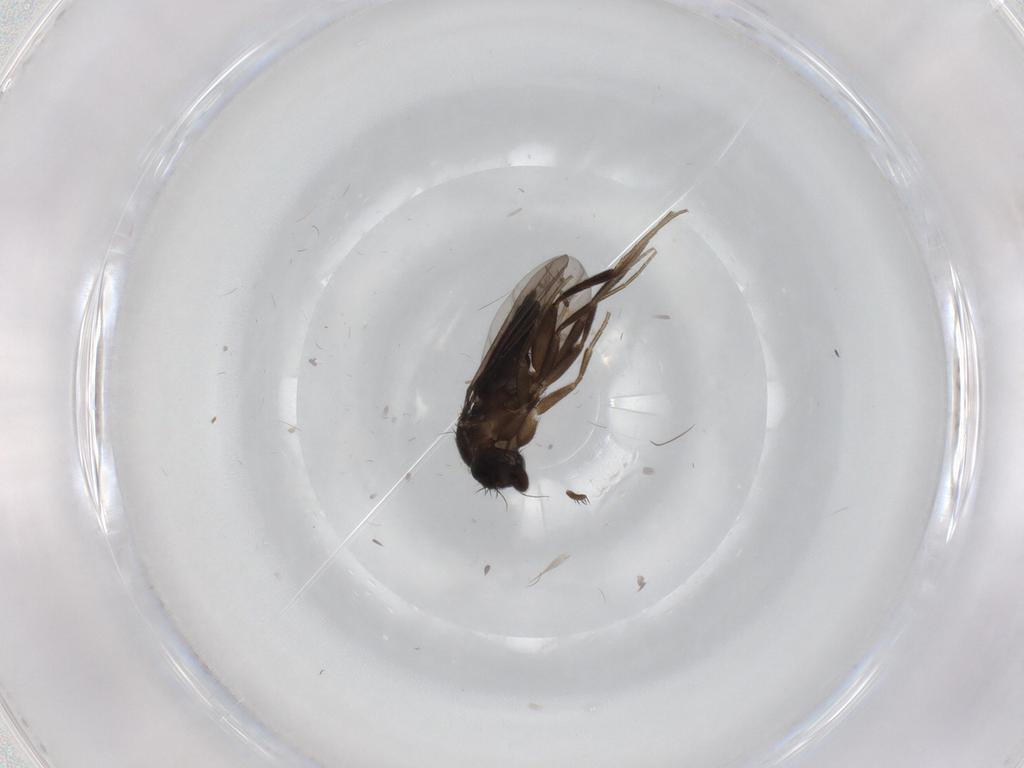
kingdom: Animalia
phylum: Arthropoda
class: Insecta
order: Diptera
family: Phoridae
